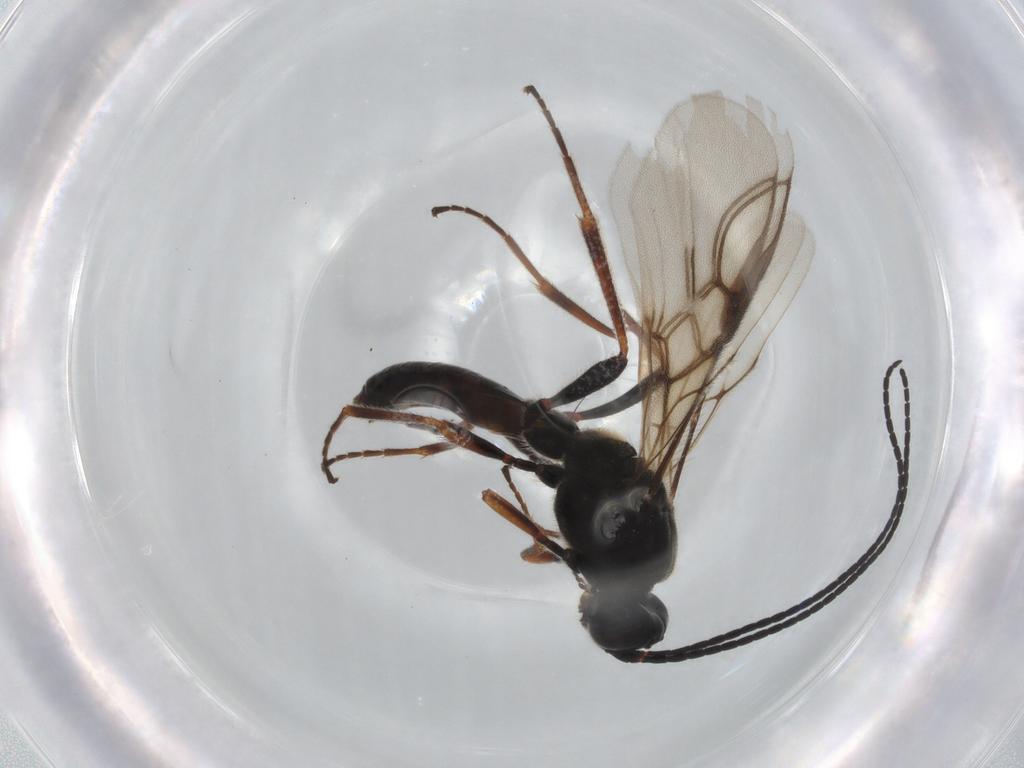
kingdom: Animalia
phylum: Arthropoda
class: Insecta
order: Hymenoptera
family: Braconidae
